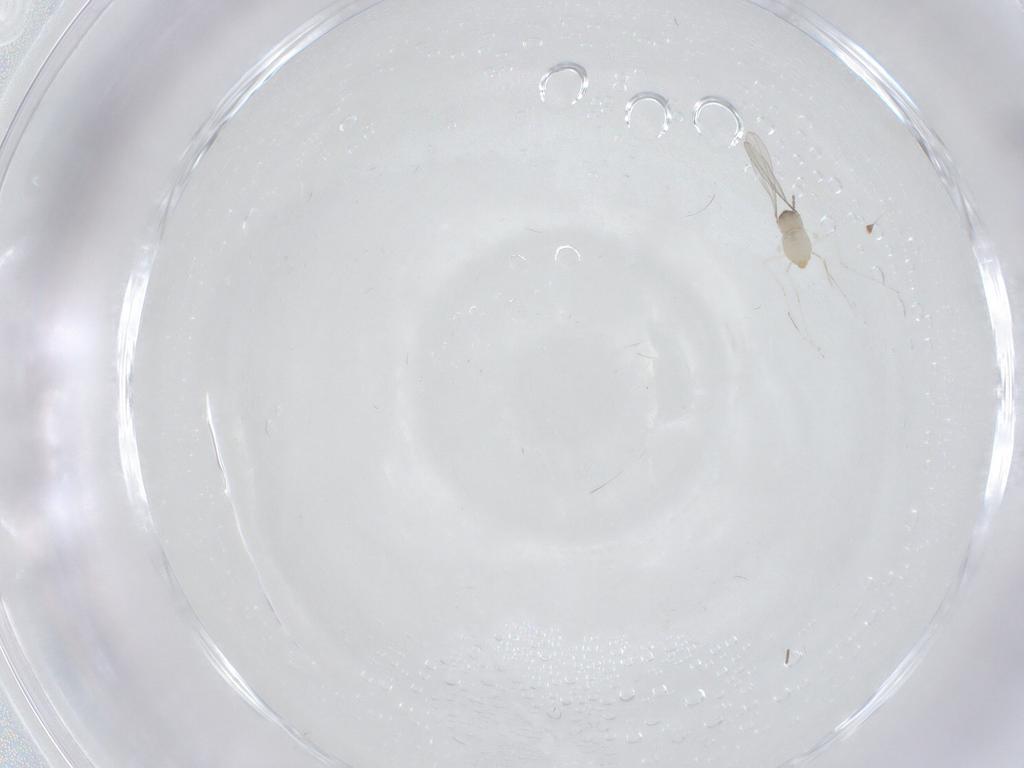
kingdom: Animalia
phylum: Arthropoda
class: Insecta
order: Diptera
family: Cecidomyiidae
